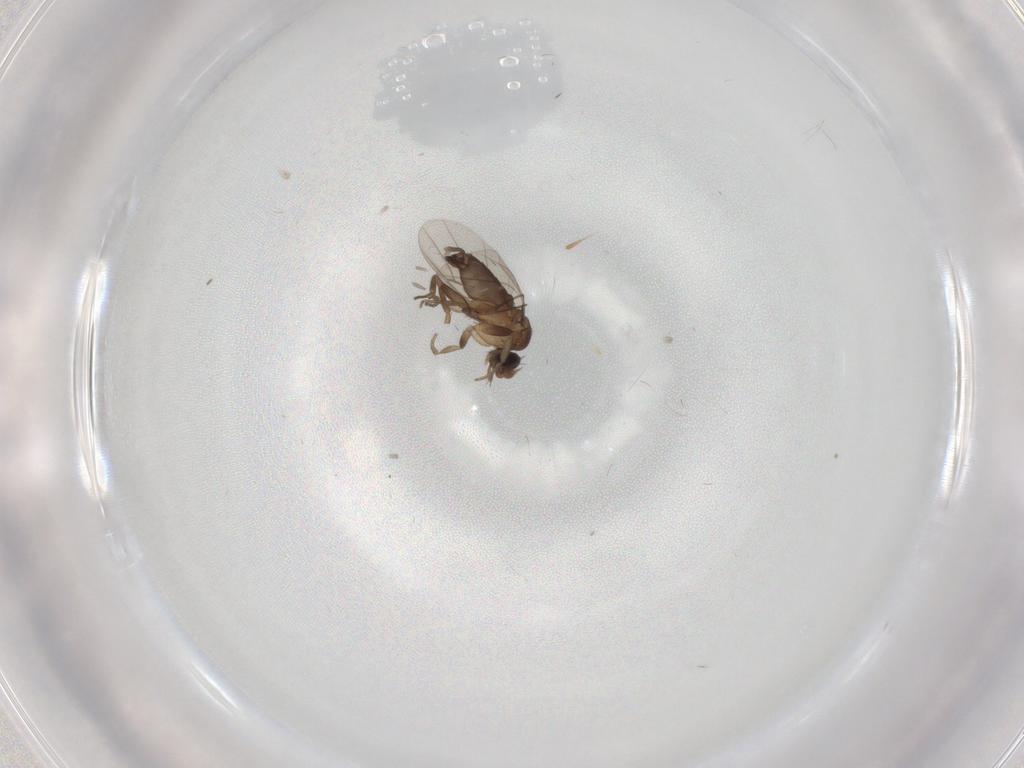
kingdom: Animalia
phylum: Arthropoda
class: Insecta
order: Diptera
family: Phoridae
